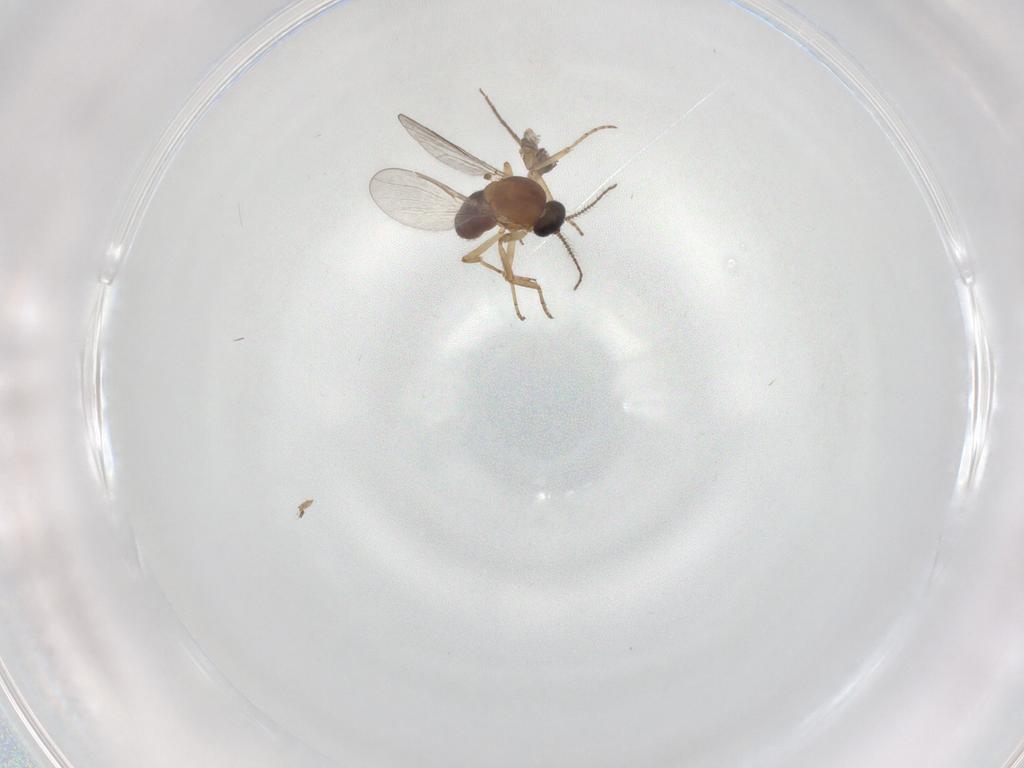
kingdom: Animalia
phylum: Arthropoda
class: Insecta
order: Diptera
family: Ceratopogonidae
